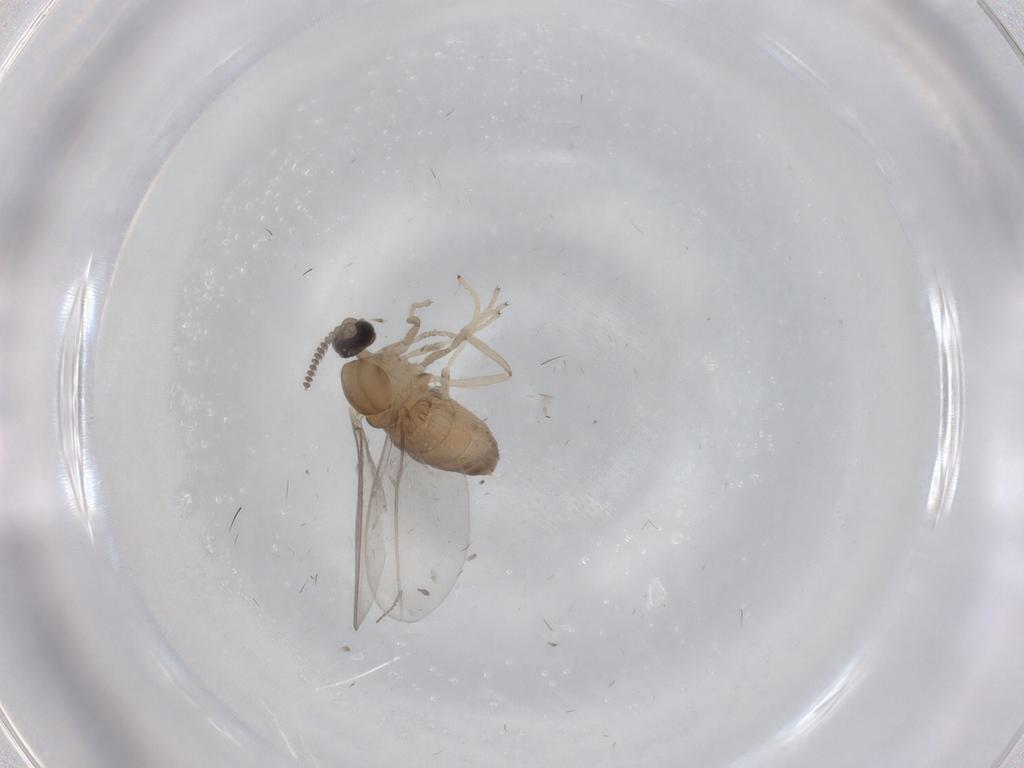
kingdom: Animalia
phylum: Arthropoda
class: Insecta
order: Diptera
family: Cecidomyiidae
